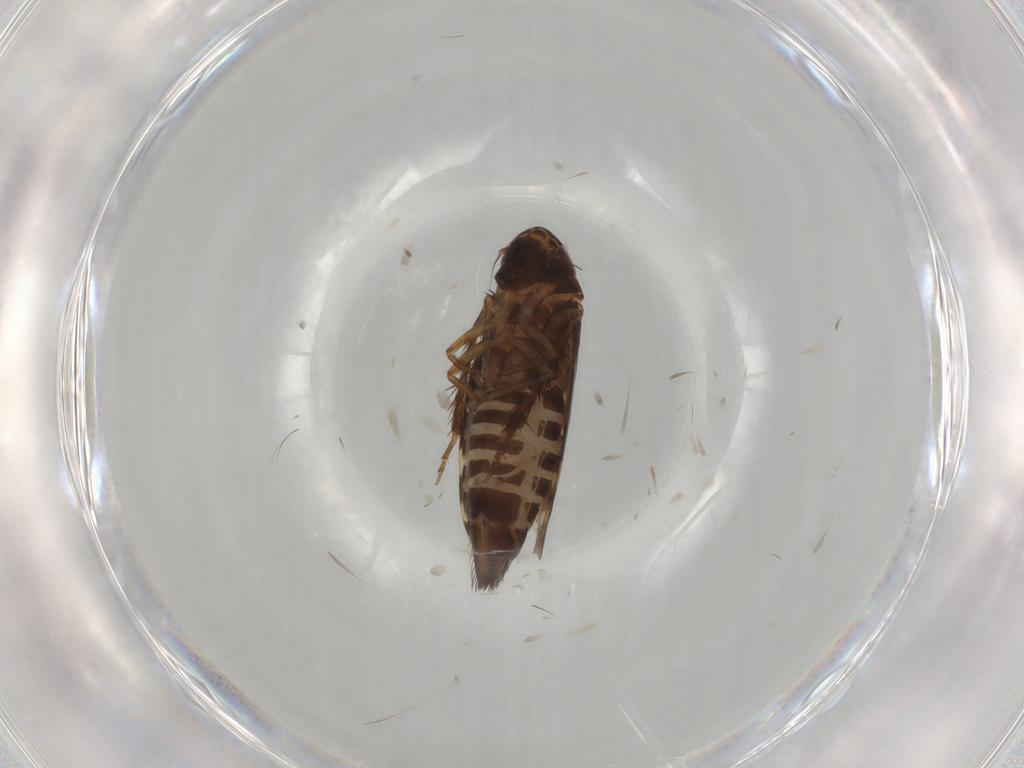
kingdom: Animalia
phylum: Arthropoda
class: Insecta
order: Hemiptera
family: Cicadellidae
